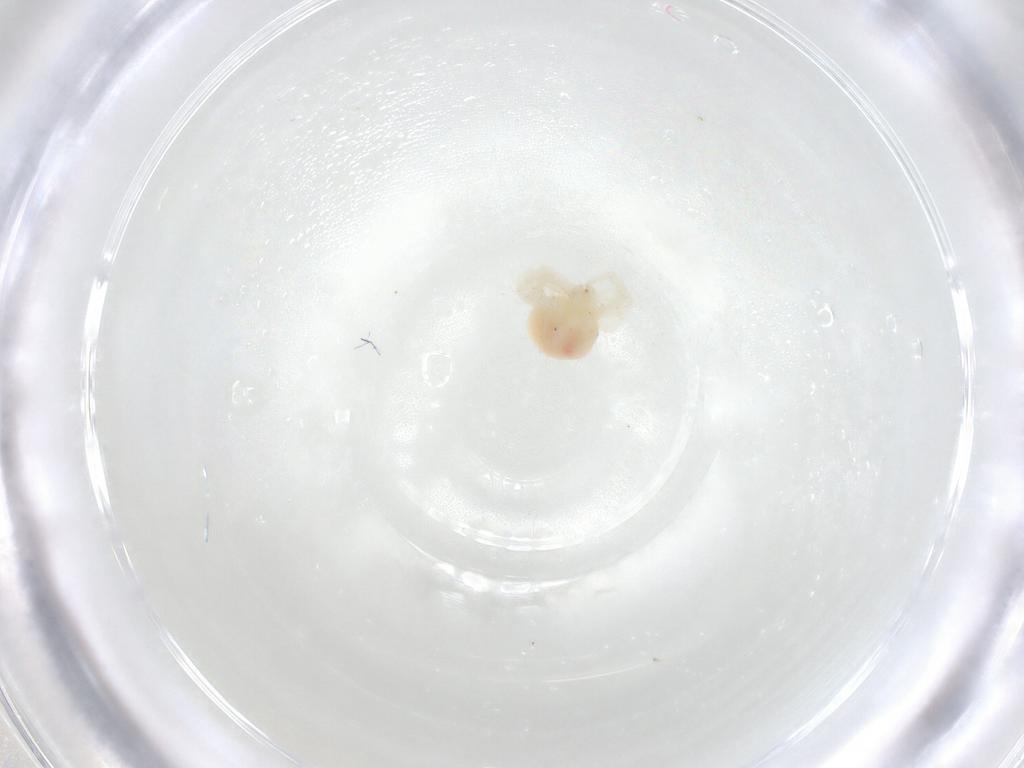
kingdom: Animalia
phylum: Arthropoda
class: Arachnida
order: Trombidiformes
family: Anystidae
